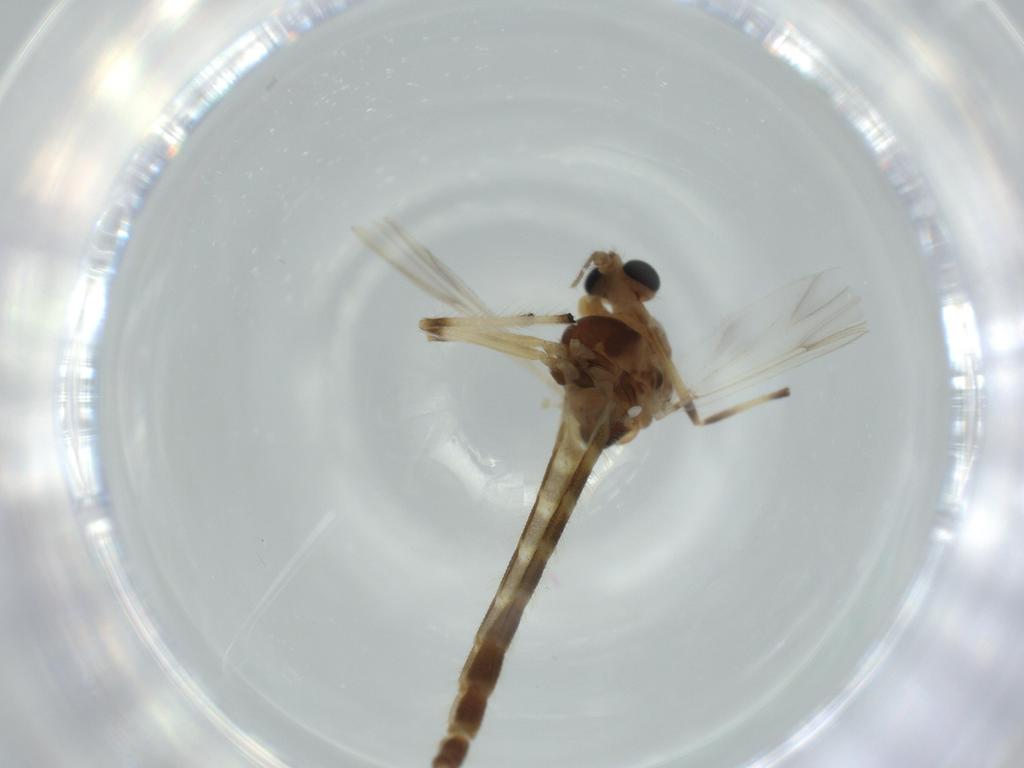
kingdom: Animalia
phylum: Arthropoda
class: Insecta
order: Diptera
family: Chironomidae
